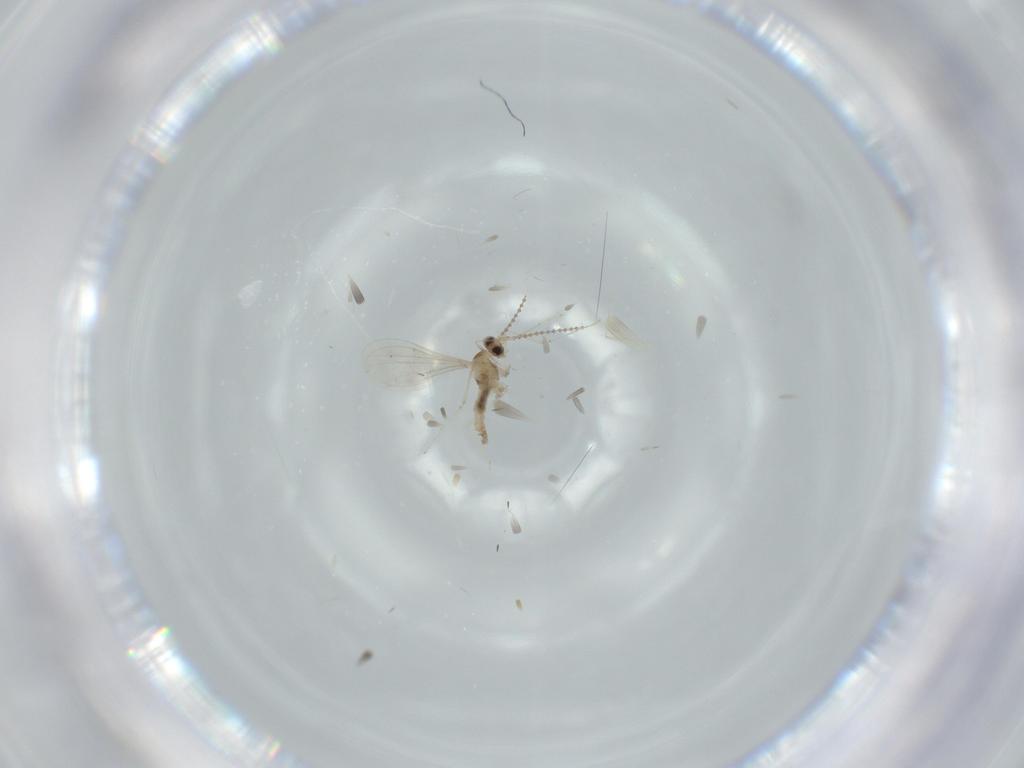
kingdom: Animalia
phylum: Arthropoda
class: Insecta
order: Diptera
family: Cecidomyiidae
